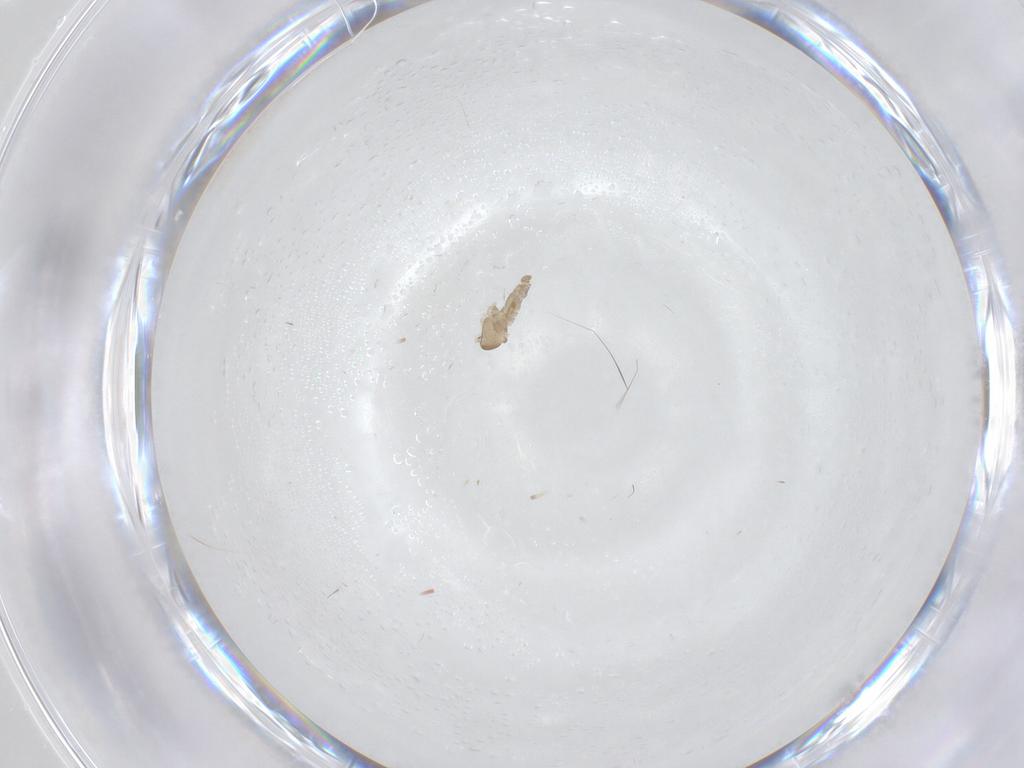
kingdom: Animalia
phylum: Arthropoda
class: Insecta
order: Diptera
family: Cecidomyiidae
